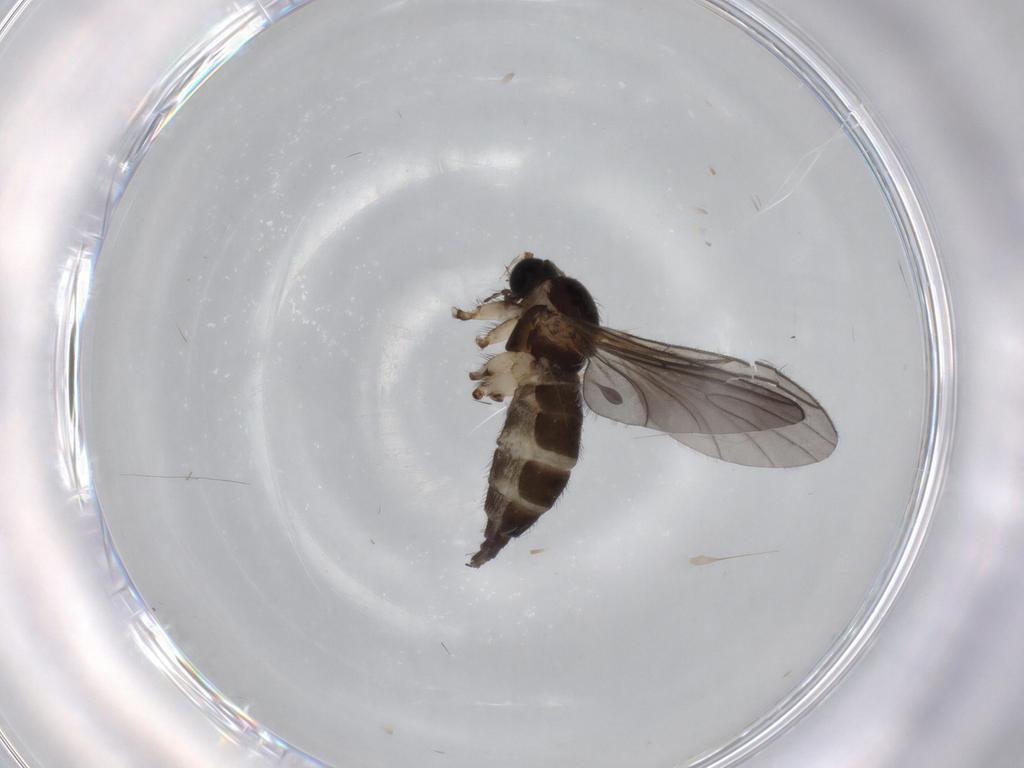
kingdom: Animalia
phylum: Arthropoda
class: Insecta
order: Diptera
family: Sciaridae
